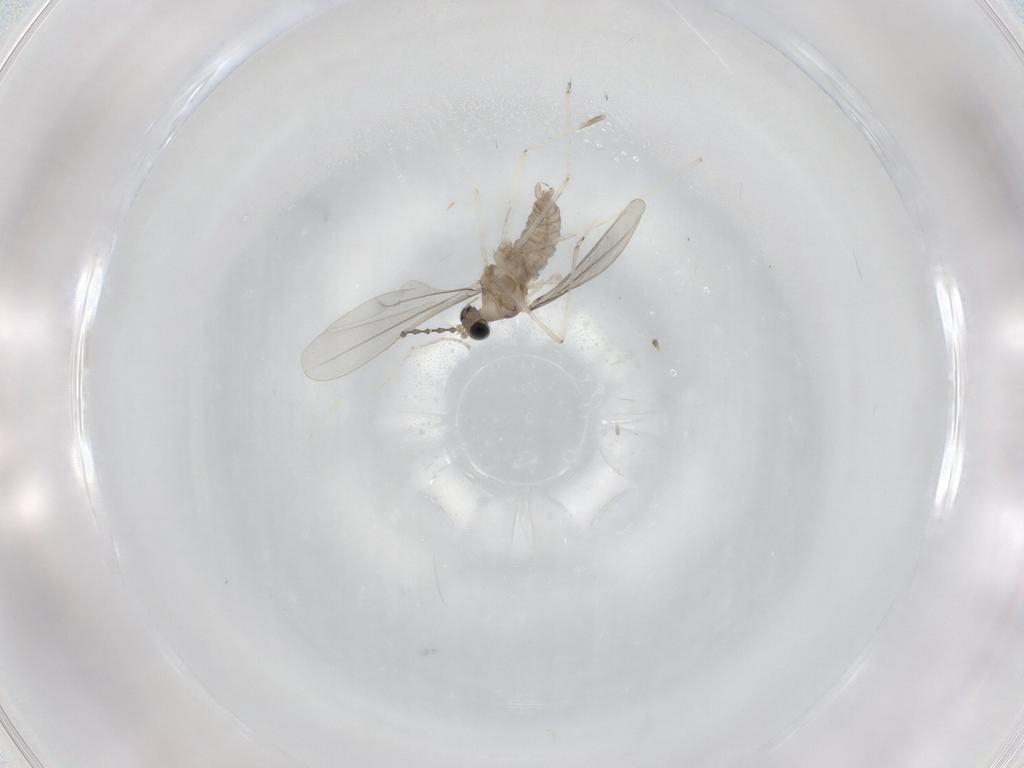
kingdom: Animalia
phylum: Arthropoda
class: Insecta
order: Diptera
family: Cecidomyiidae
